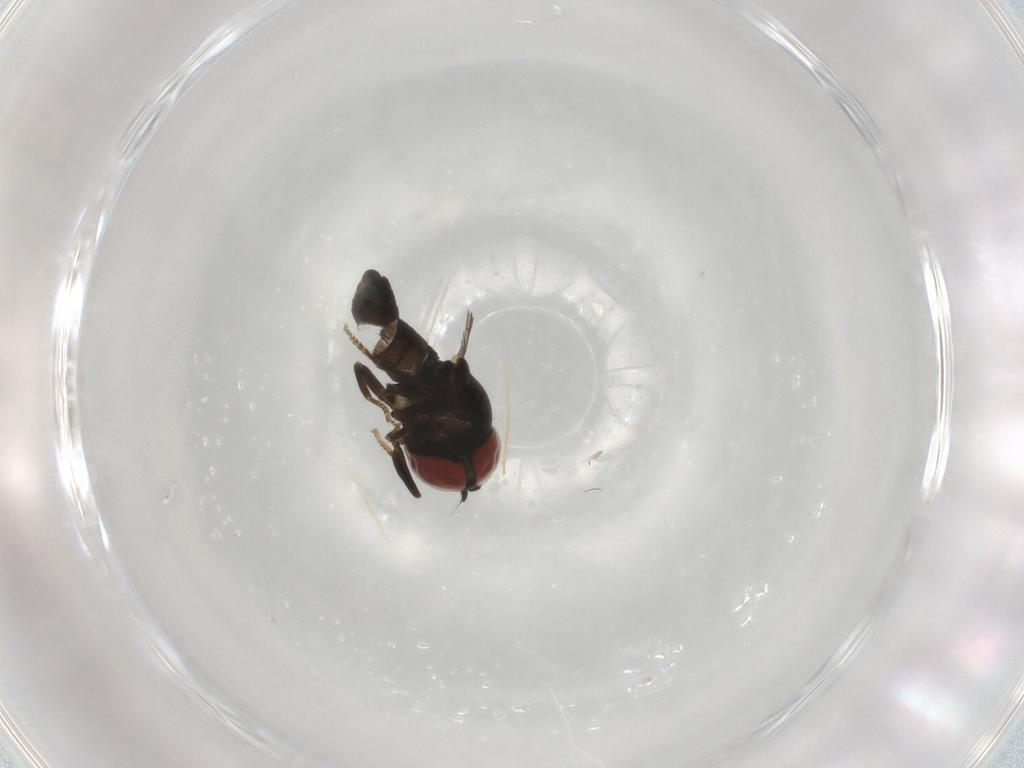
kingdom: Animalia
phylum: Arthropoda
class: Insecta
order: Diptera
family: Pipunculidae
